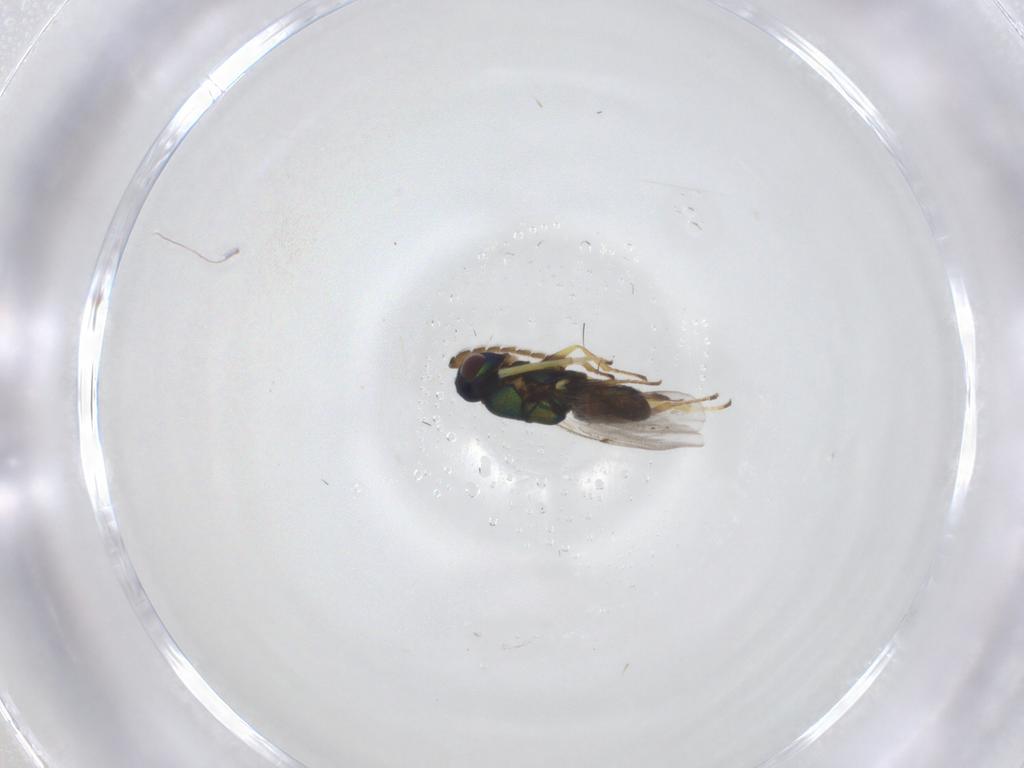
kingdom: Animalia
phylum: Arthropoda
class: Insecta
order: Hymenoptera
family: Encyrtidae
